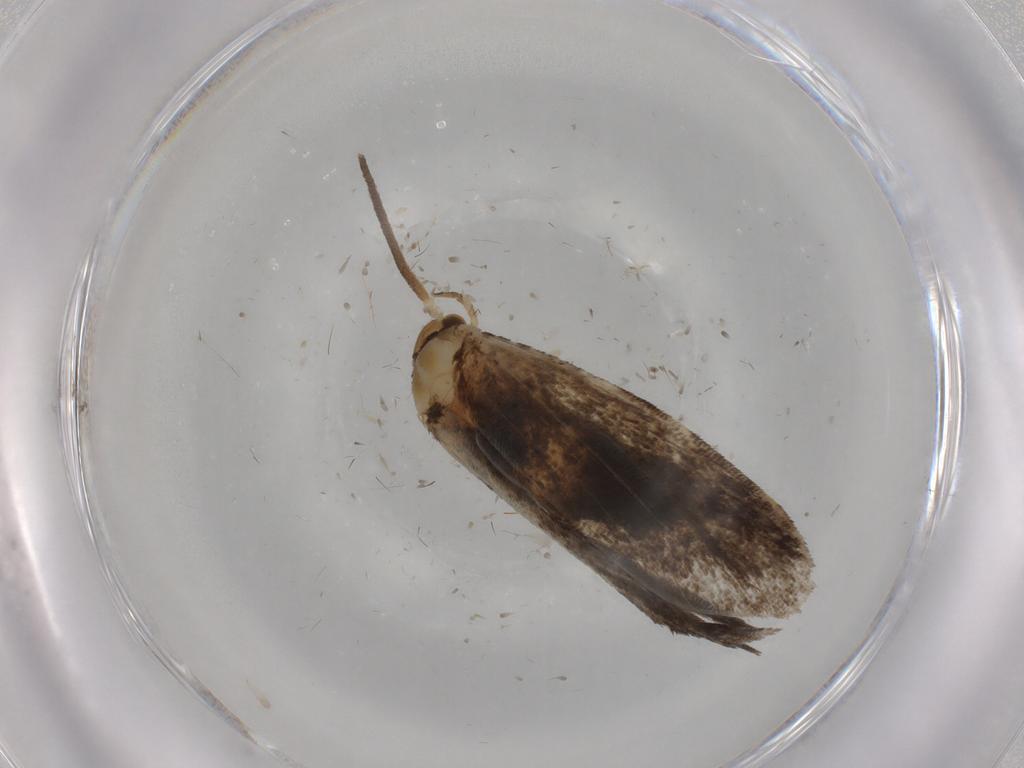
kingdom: Animalia
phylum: Arthropoda
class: Insecta
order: Lepidoptera
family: Dryadaulidae
